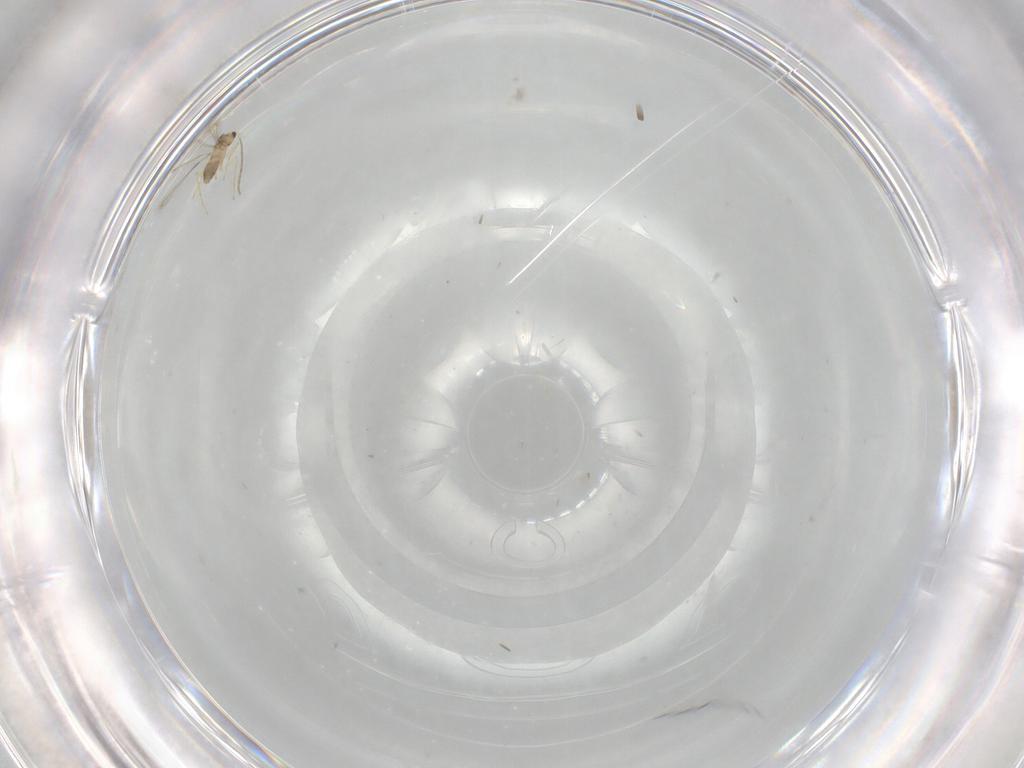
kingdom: Animalia
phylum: Arthropoda
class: Insecta
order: Hymenoptera
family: Mymaridae
